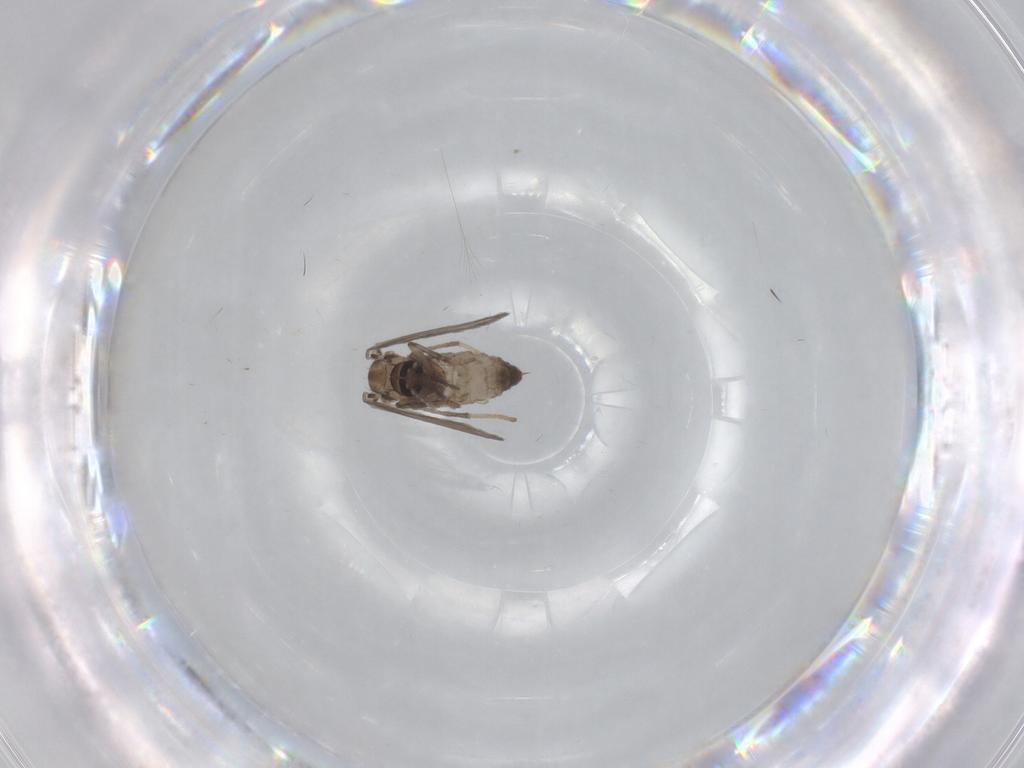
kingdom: Animalia
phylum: Arthropoda
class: Insecta
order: Diptera
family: Psychodidae
